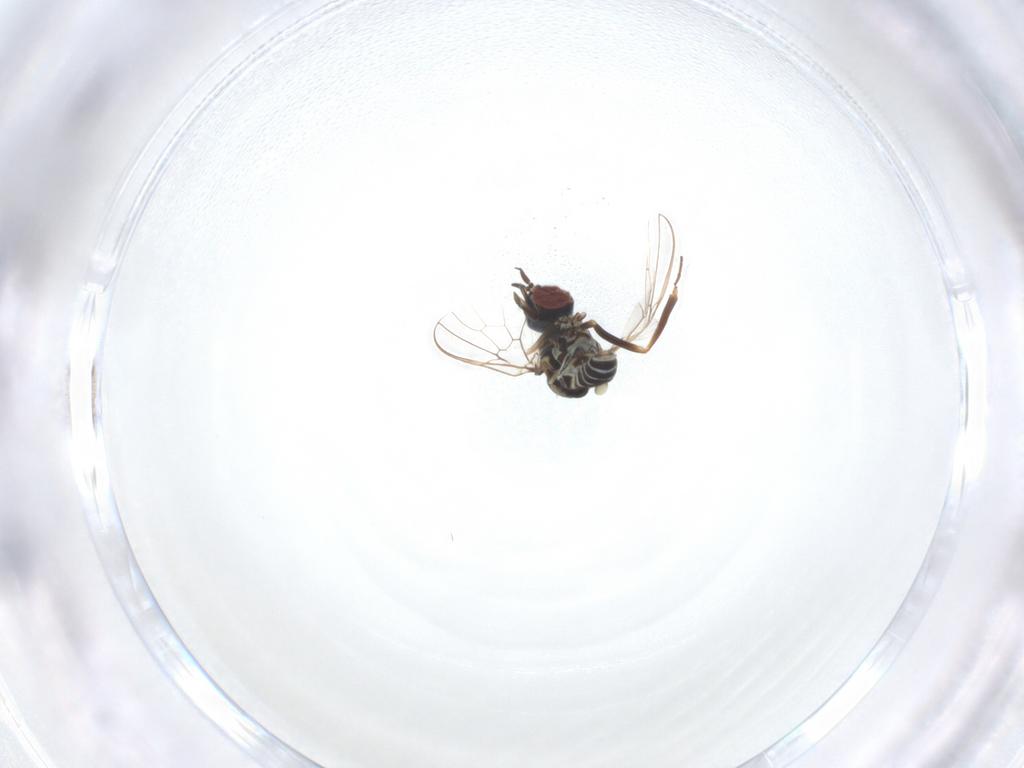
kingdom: Animalia
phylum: Arthropoda
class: Insecta
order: Diptera
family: Bombyliidae
